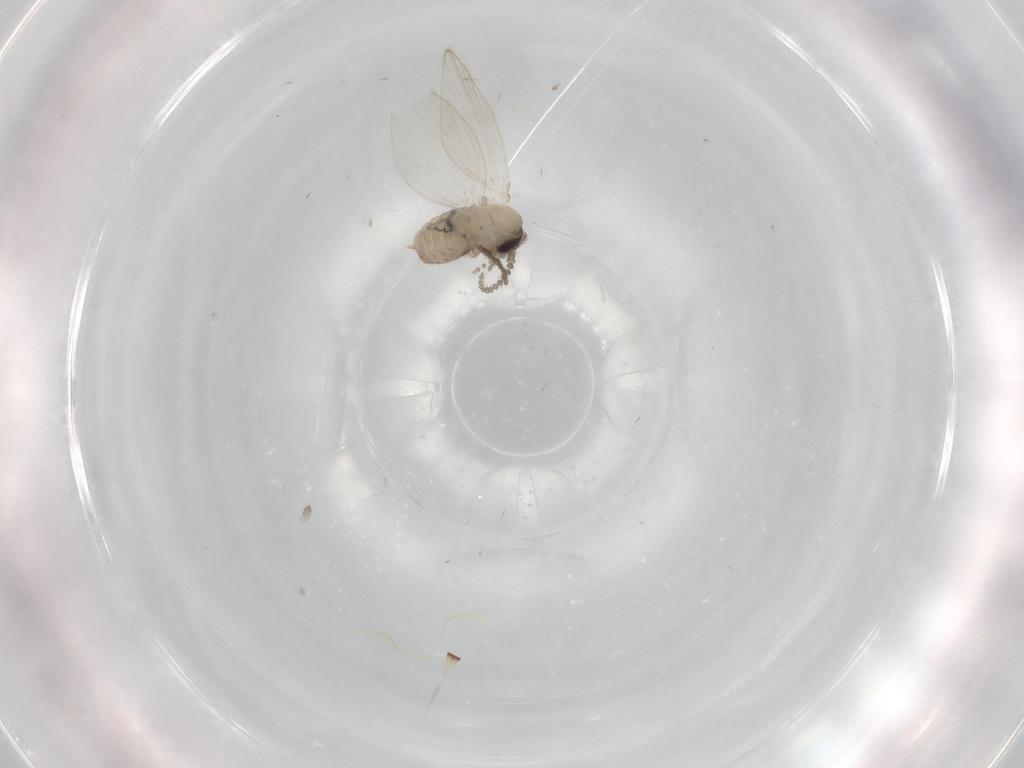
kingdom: Animalia
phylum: Arthropoda
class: Insecta
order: Diptera
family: Psychodidae
